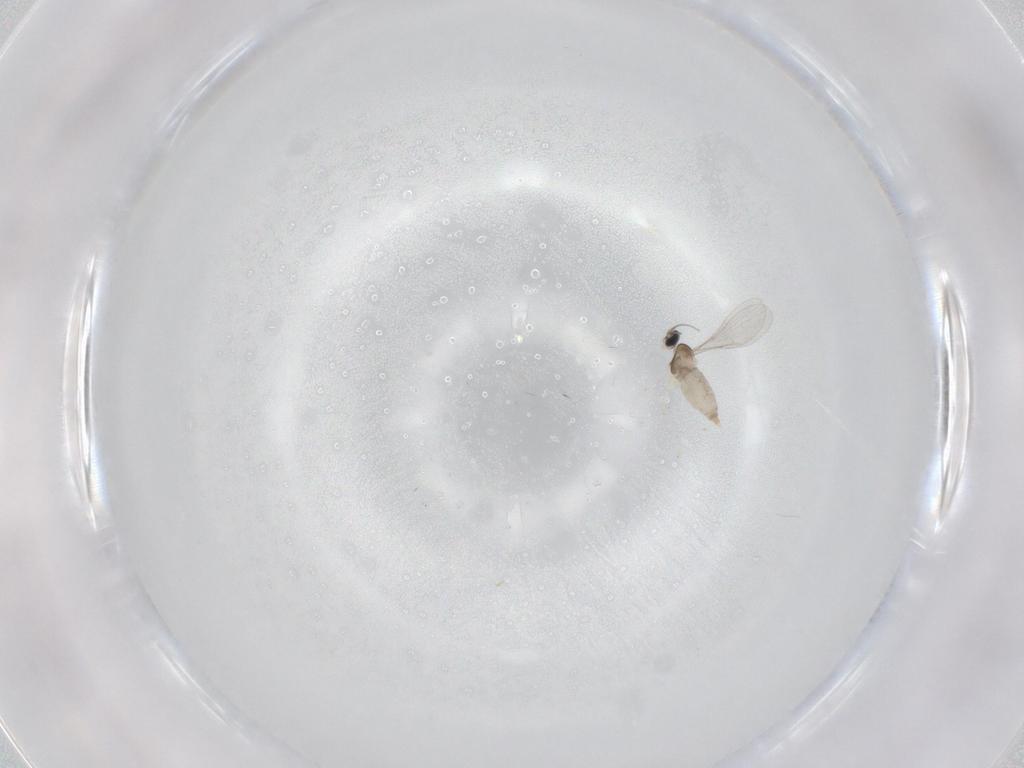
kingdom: Animalia
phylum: Arthropoda
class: Insecta
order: Diptera
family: Cecidomyiidae
